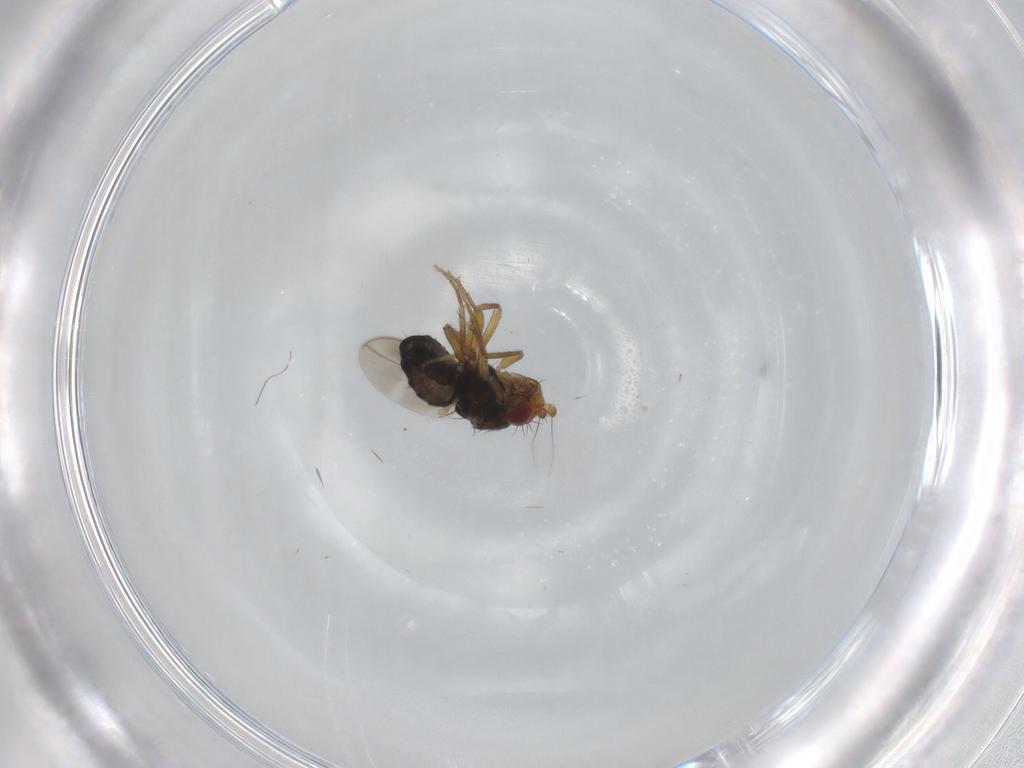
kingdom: Animalia
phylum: Arthropoda
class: Insecta
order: Diptera
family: Sphaeroceridae
